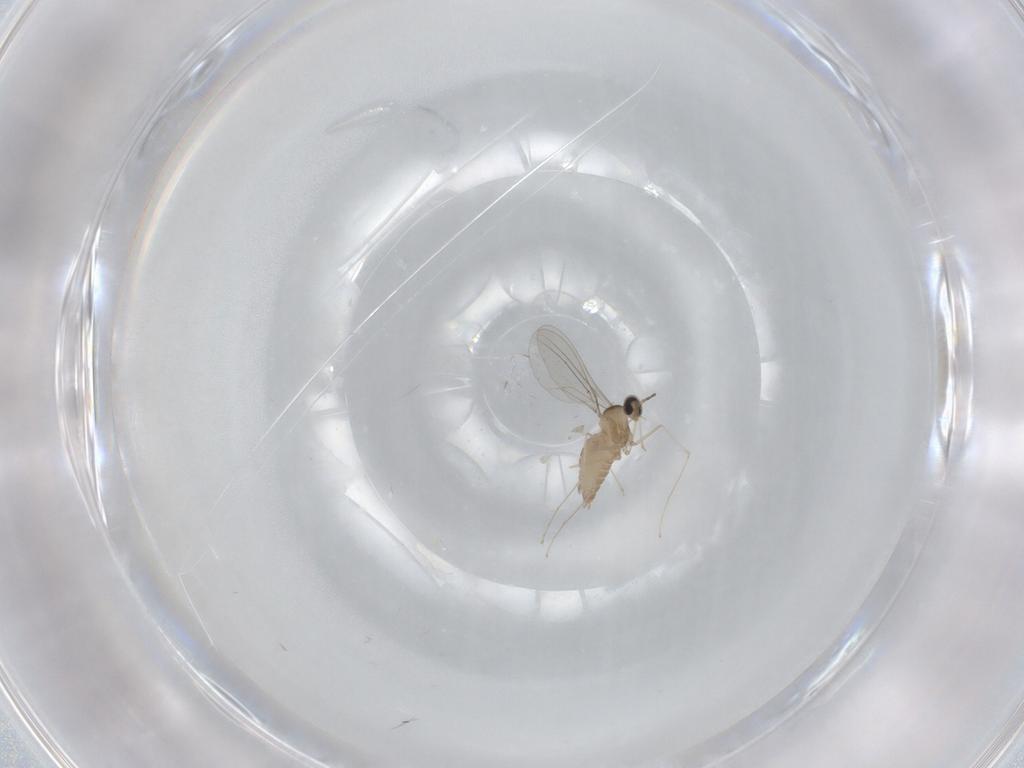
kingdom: Animalia
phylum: Arthropoda
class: Insecta
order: Diptera
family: Cecidomyiidae
